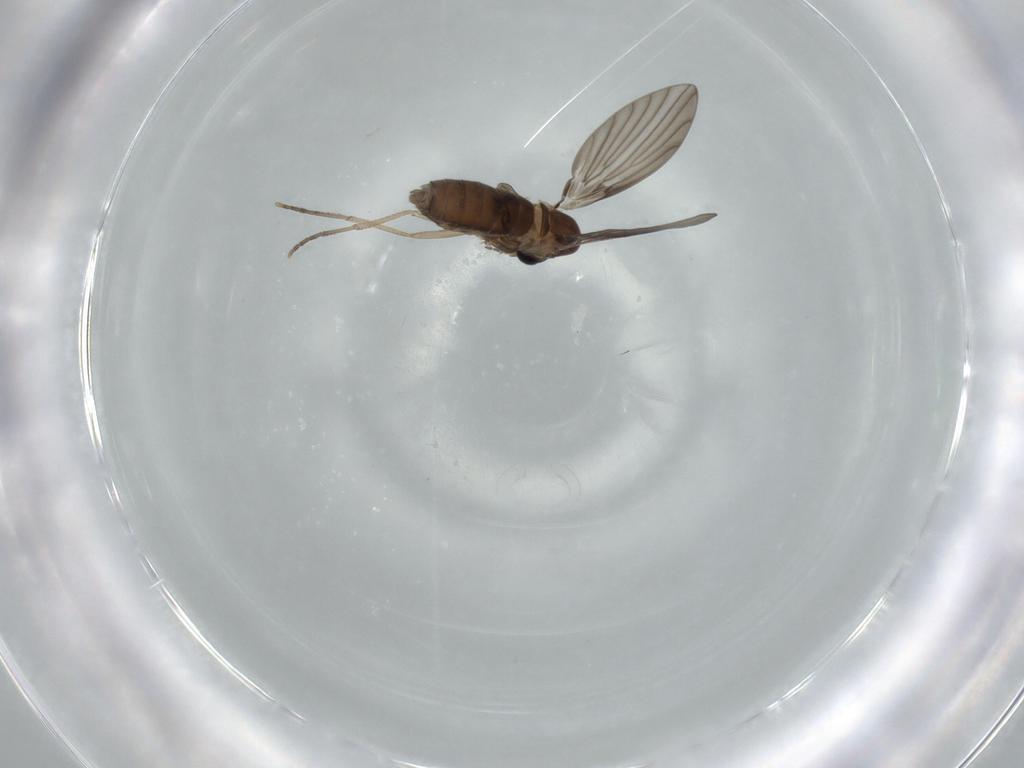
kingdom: Animalia
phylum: Arthropoda
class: Insecta
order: Diptera
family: Psychodidae
